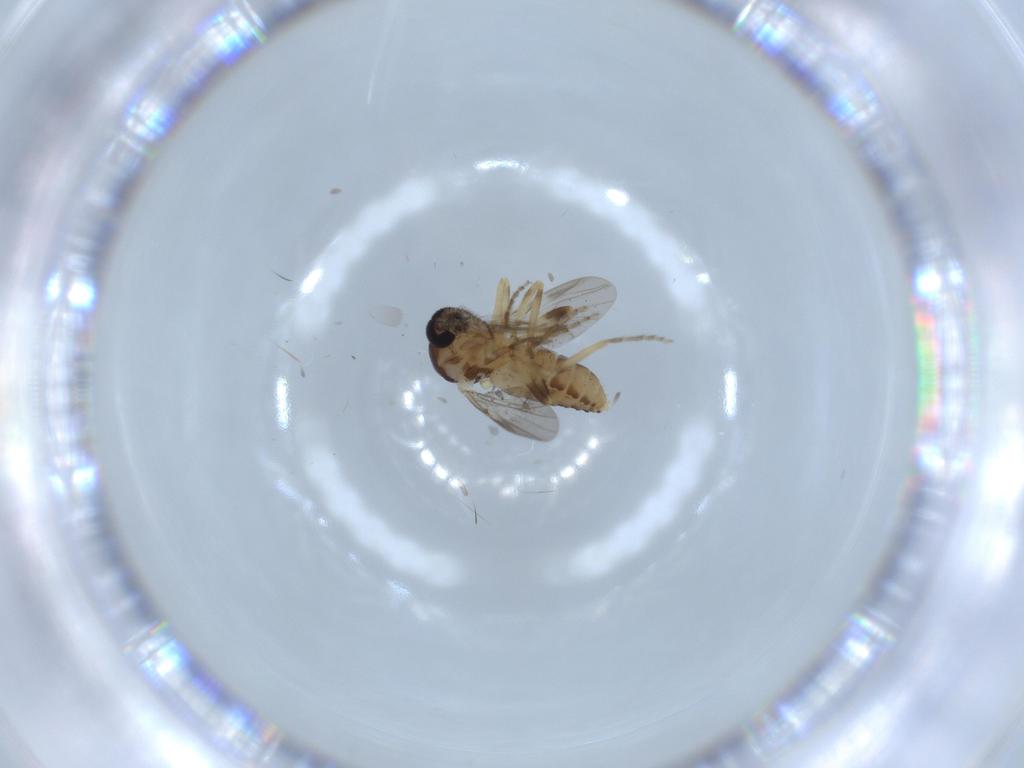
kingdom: Animalia
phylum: Arthropoda
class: Insecta
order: Diptera
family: Ceratopogonidae
